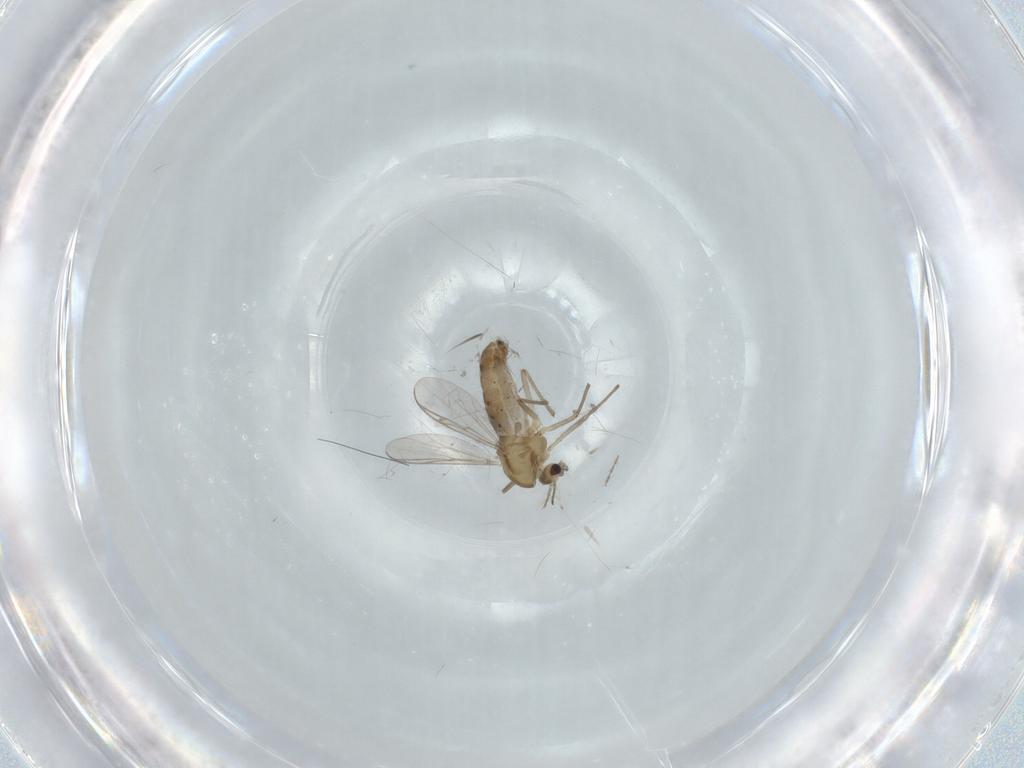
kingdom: Animalia
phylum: Arthropoda
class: Insecta
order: Diptera
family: Chironomidae
